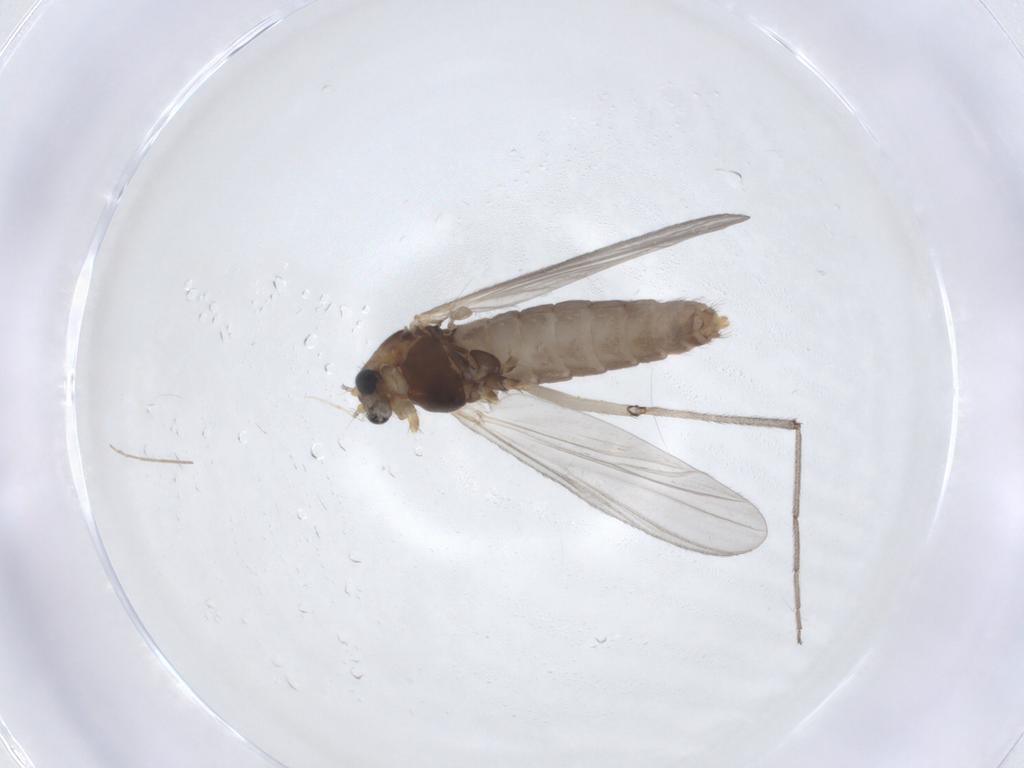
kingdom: Animalia
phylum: Arthropoda
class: Insecta
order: Diptera
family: Chironomidae
